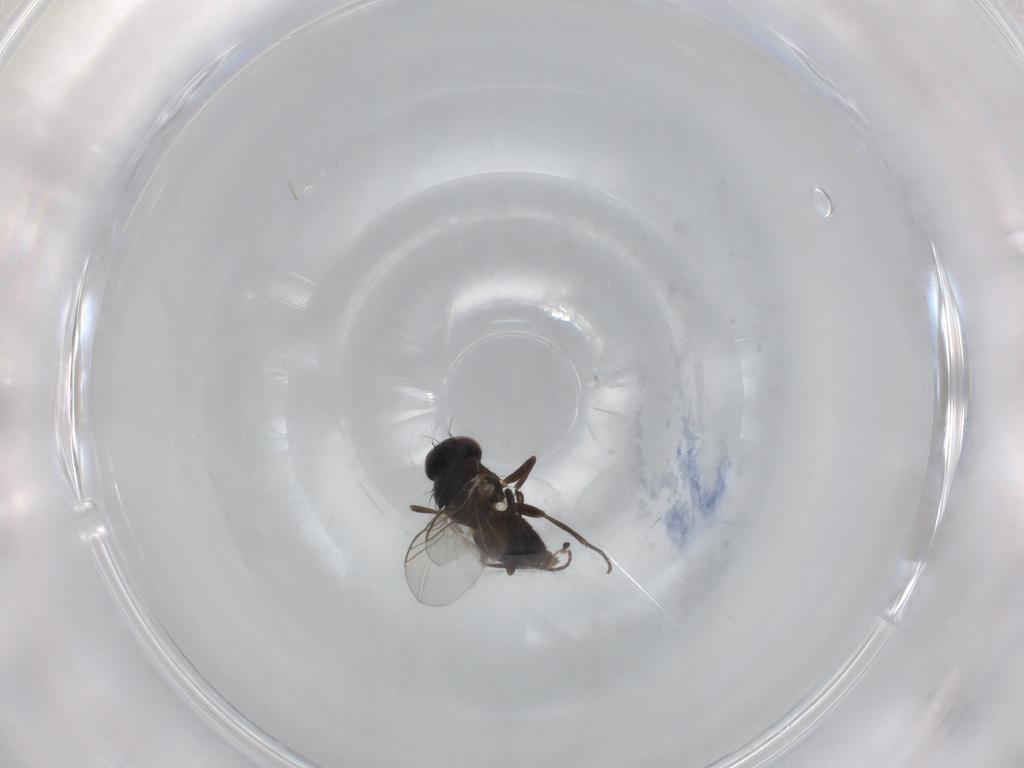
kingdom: Animalia
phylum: Arthropoda
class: Insecta
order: Diptera
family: Agromyzidae
